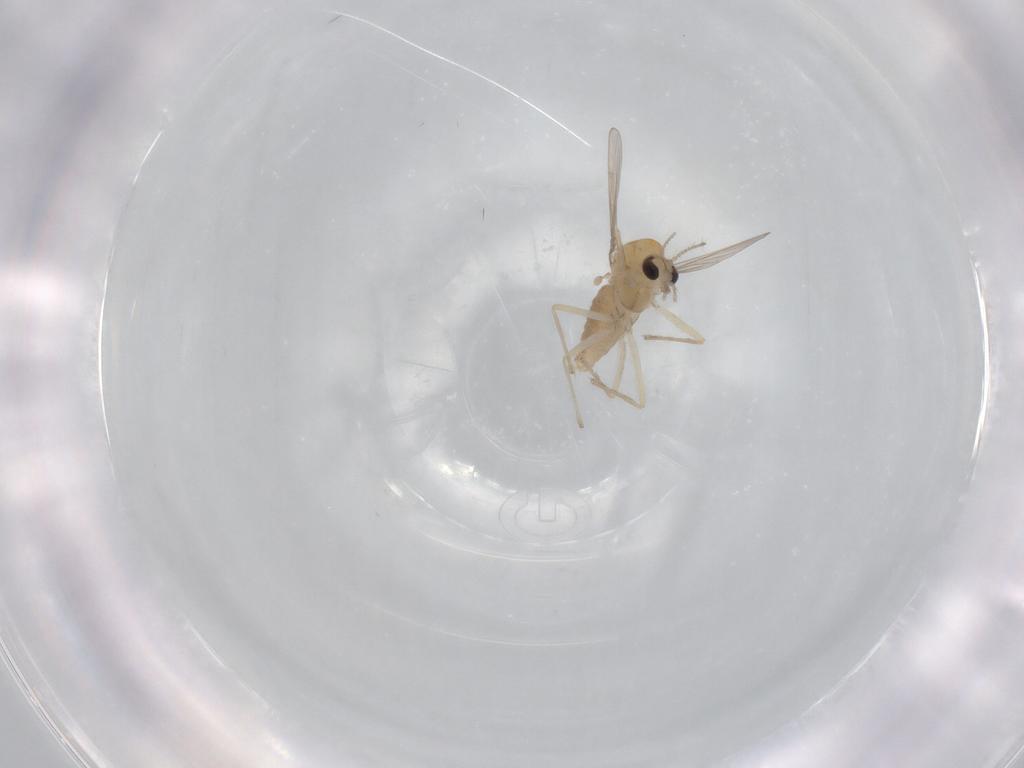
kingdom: Animalia
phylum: Arthropoda
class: Insecta
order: Diptera
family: Chironomidae
